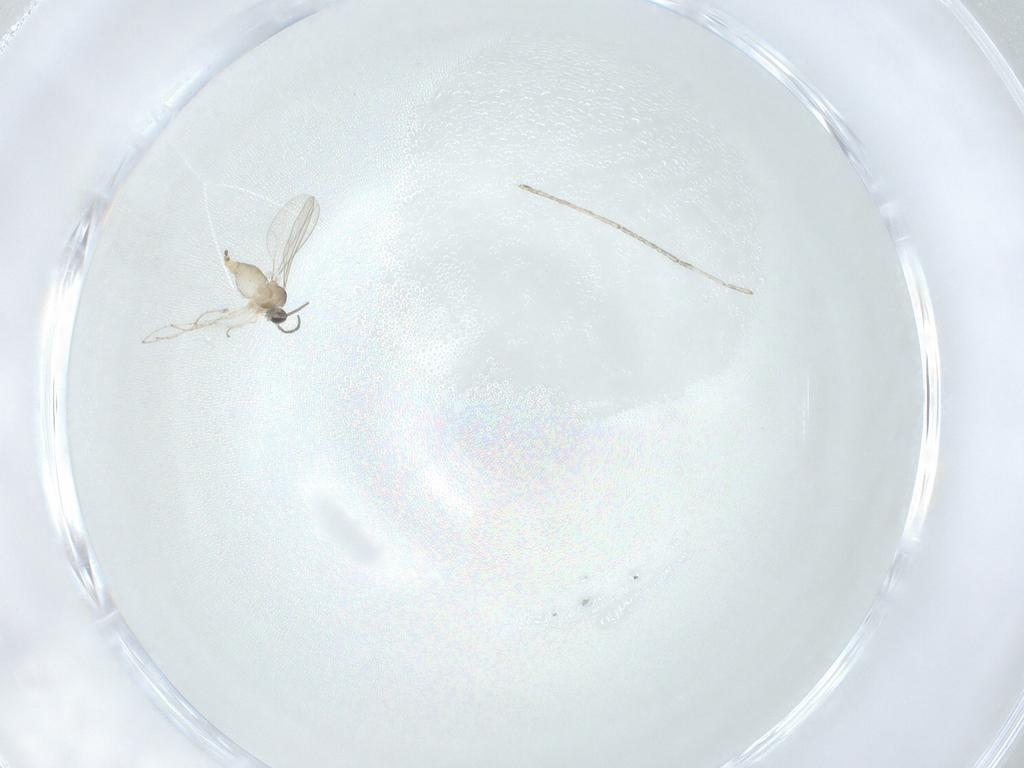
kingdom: Animalia
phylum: Arthropoda
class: Insecta
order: Diptera
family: Cecidomyiidae
